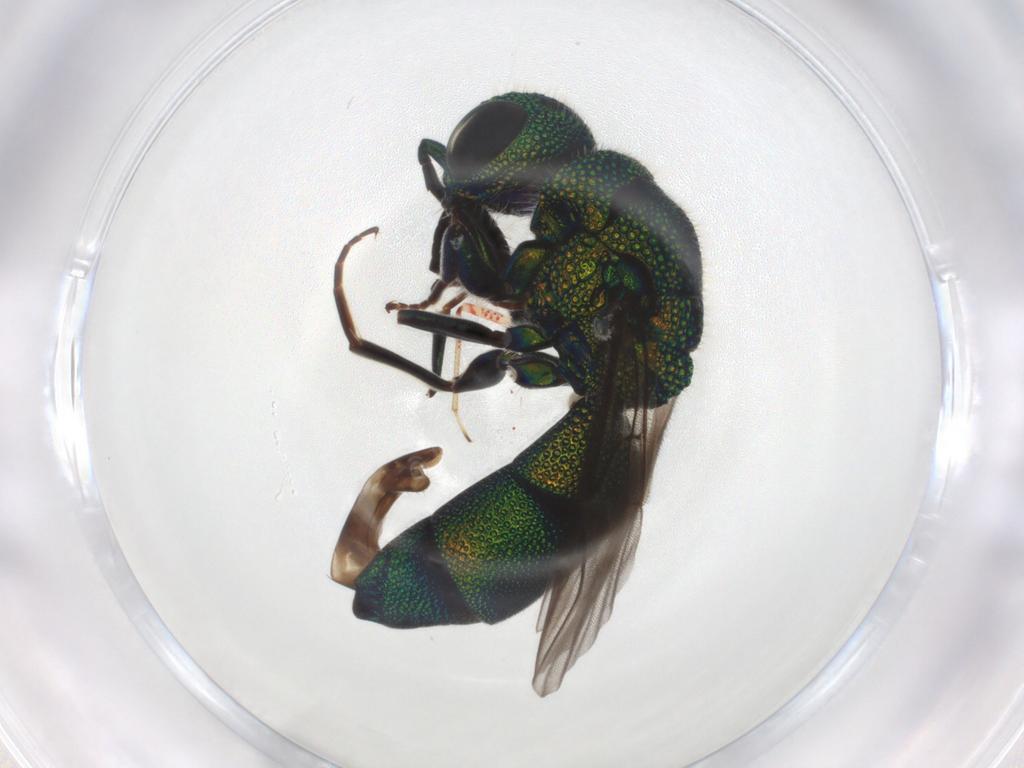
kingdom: Animalia
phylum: Arthropoda
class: Insecta
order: Hymenoptera
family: Chrysididae
